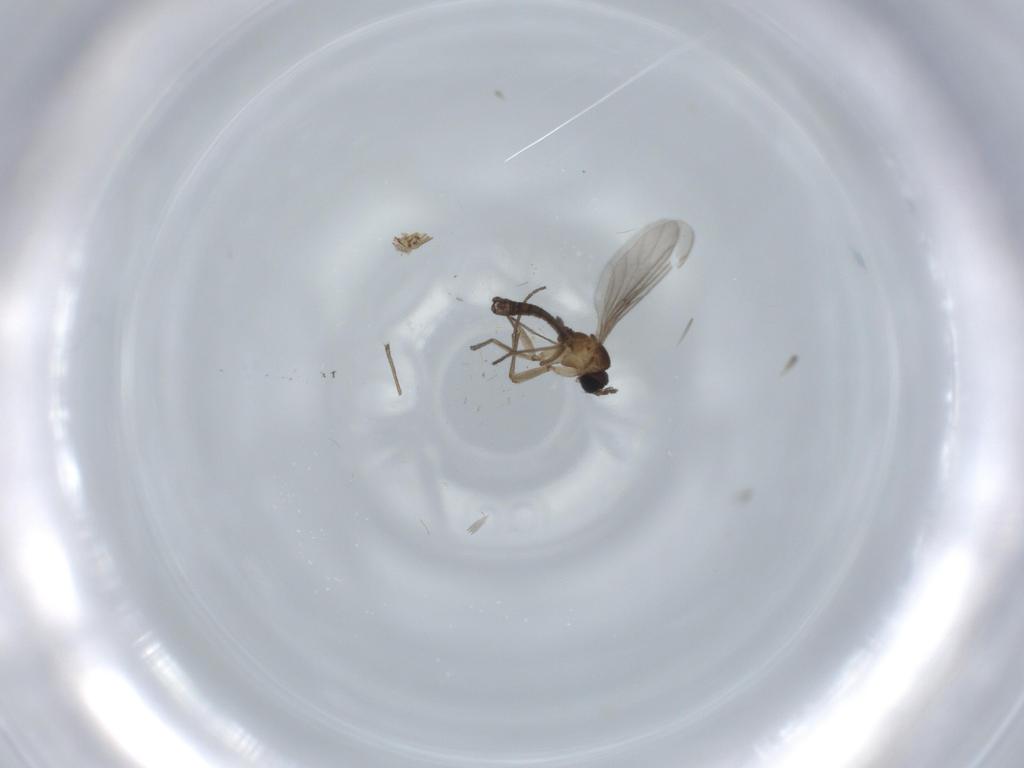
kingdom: Animalia
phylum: Arthropoda
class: Insecta
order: Diptera
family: Sciaridae
